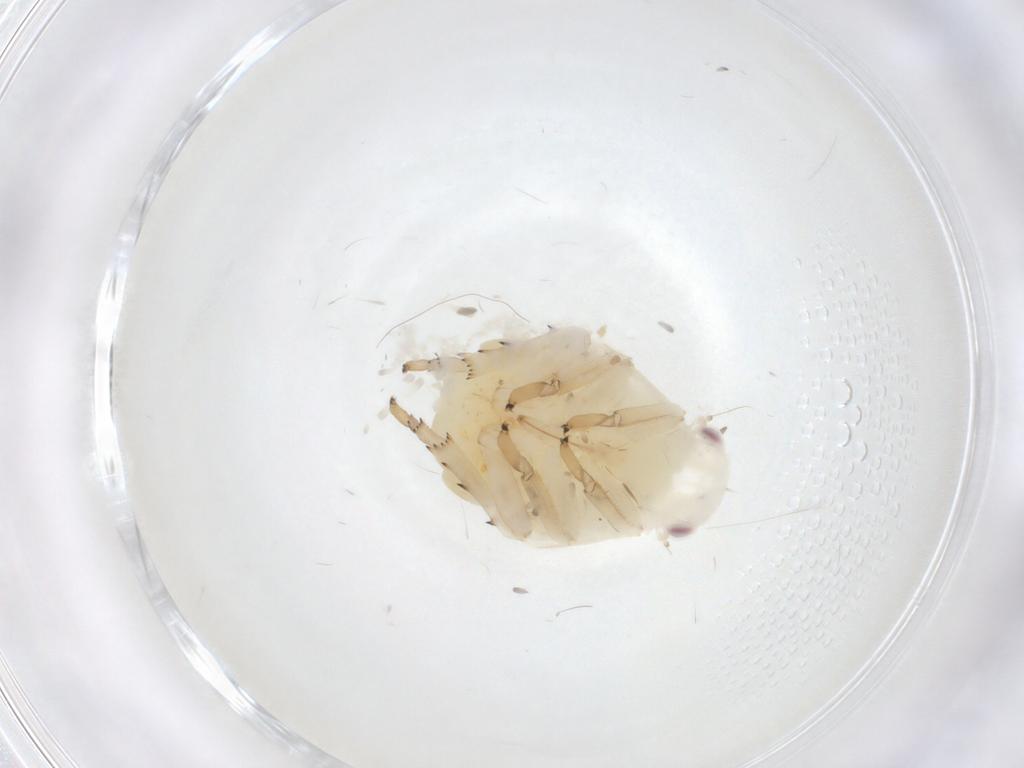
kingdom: Animalia
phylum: Arthropoda
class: Insecta
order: Hemiptera
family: Flatidae
